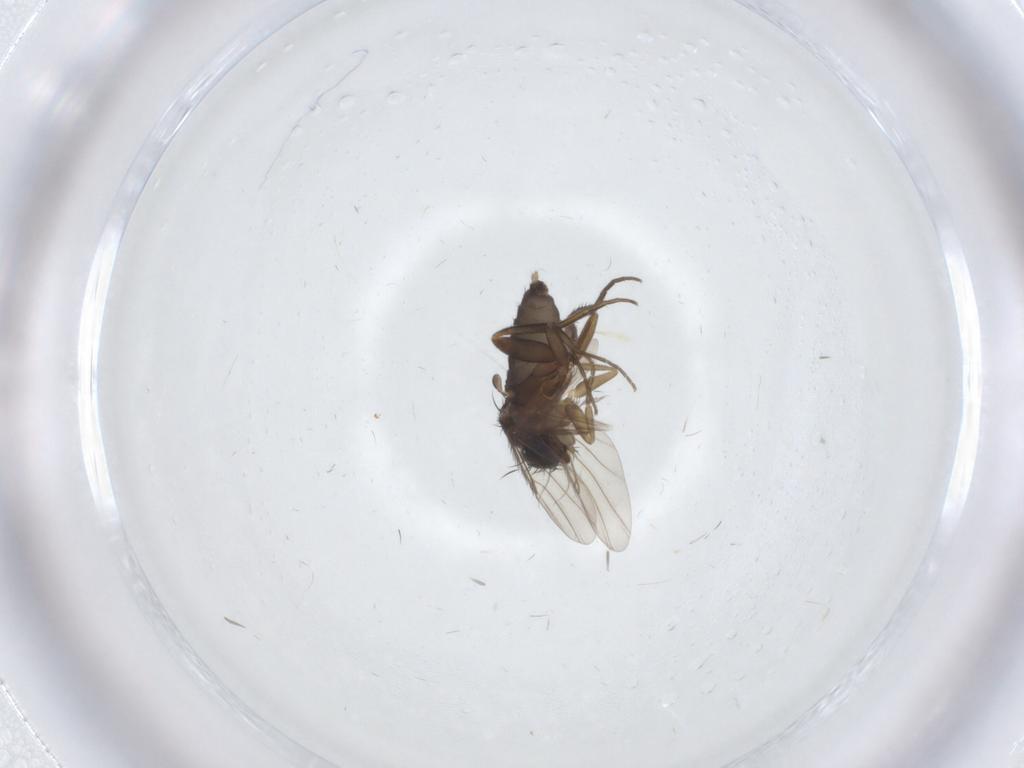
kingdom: Animalia
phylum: Arthropoda
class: Insecta
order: Diptera
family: Phoridae
